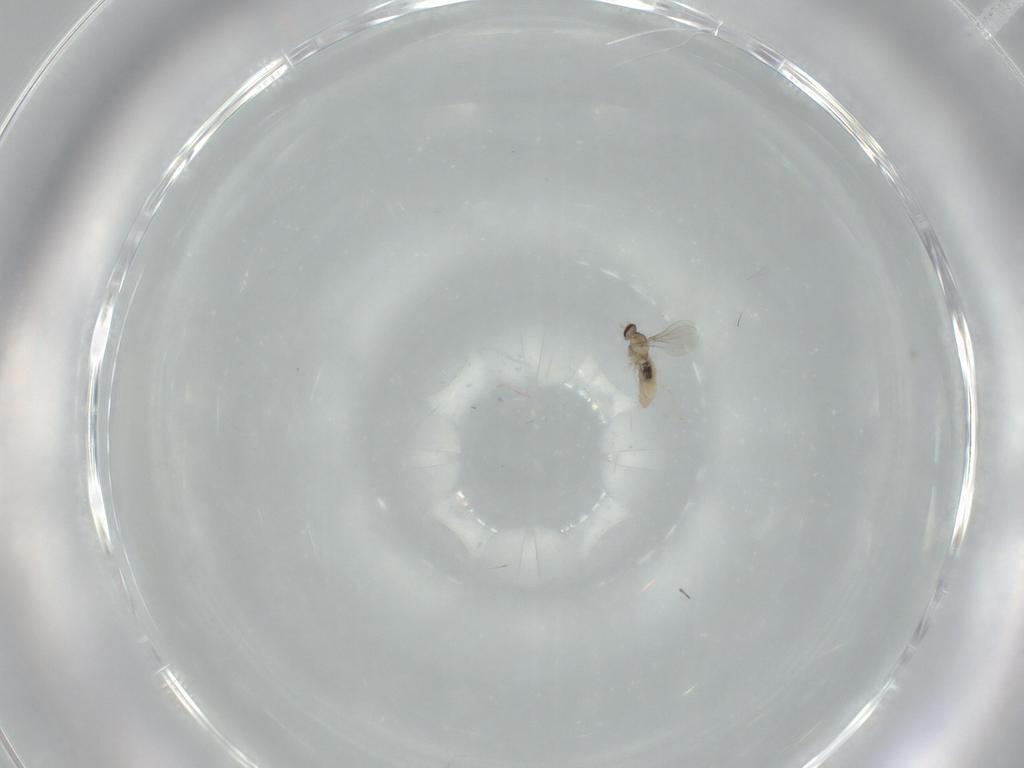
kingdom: Animalia
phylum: Arthropoda
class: Insecta
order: Diptera
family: Cecidomyiidae
